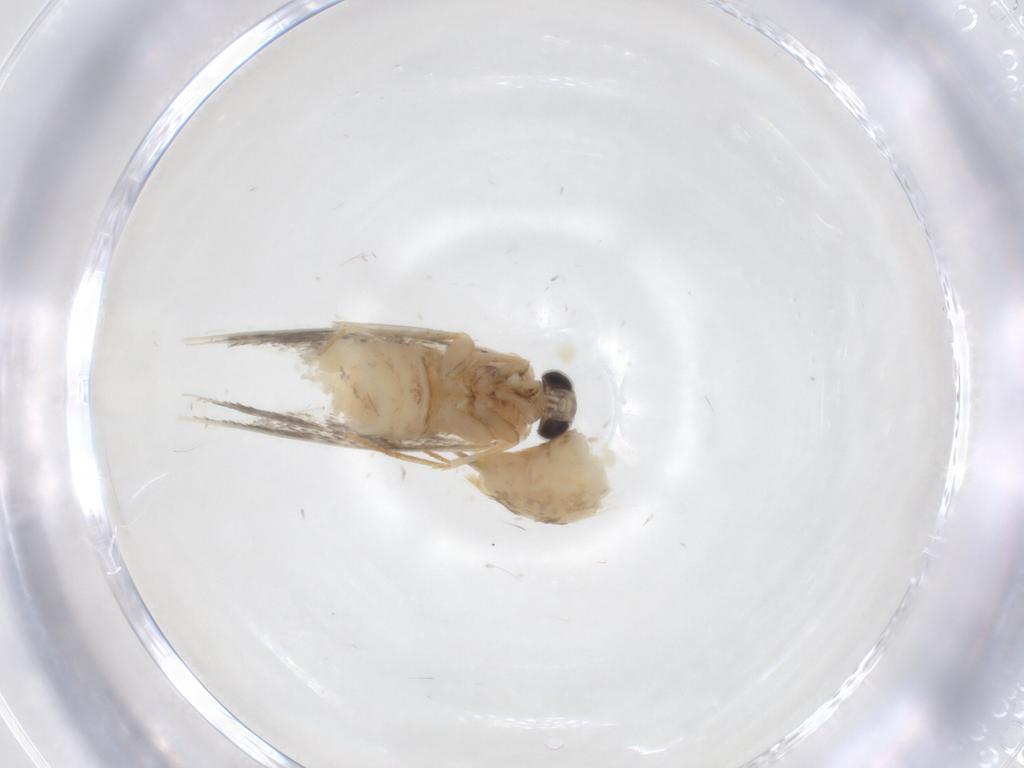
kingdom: Animalia
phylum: Arthropoda
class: Insecta
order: Lepidoptera
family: Tineidae
